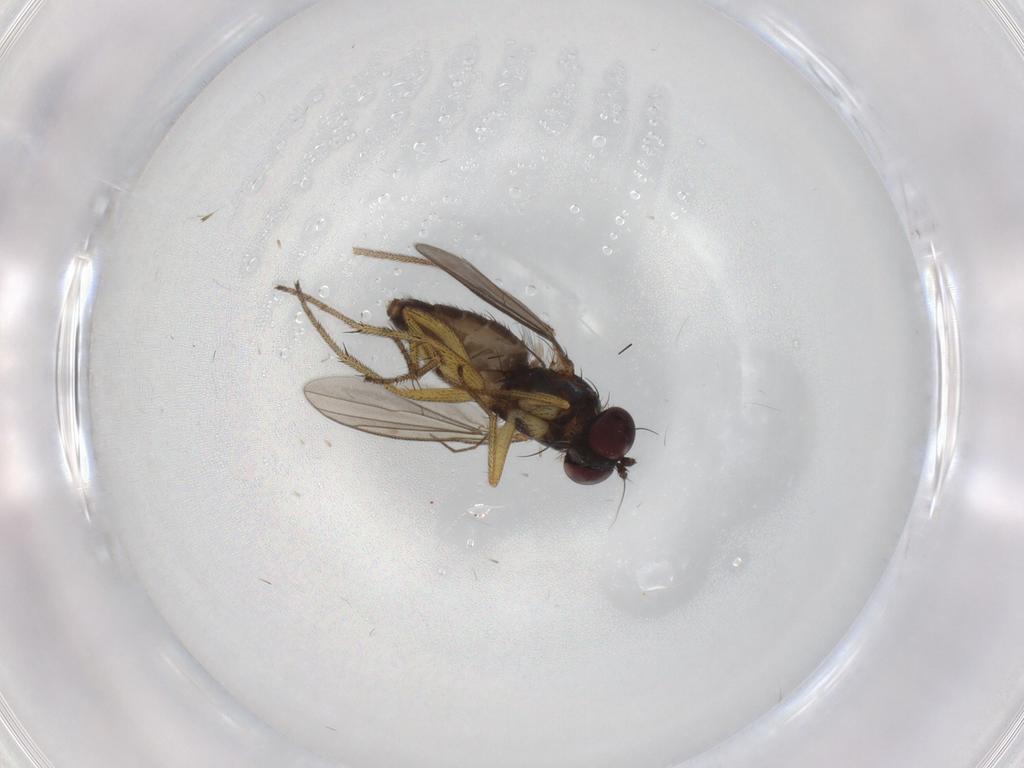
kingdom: Animalia
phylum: Arthropoda
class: Insecta
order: Diptera
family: Chironomidae
